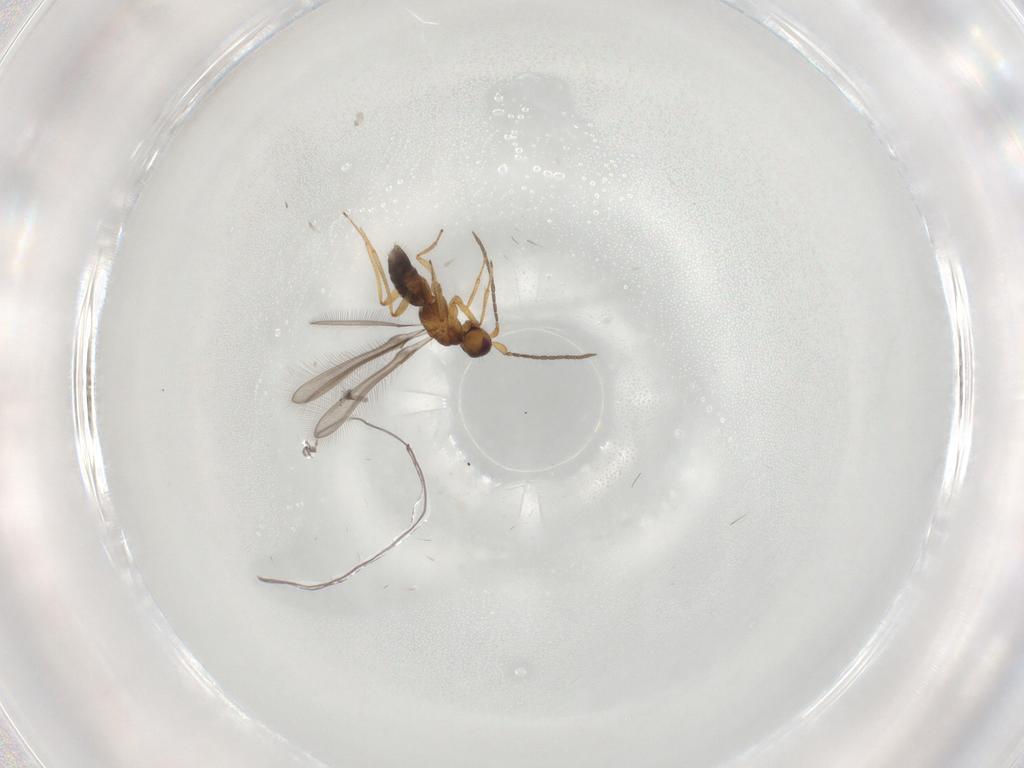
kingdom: Animalia
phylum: Arthropoda
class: Insecta
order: Hymenoptera
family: Mymaridae
